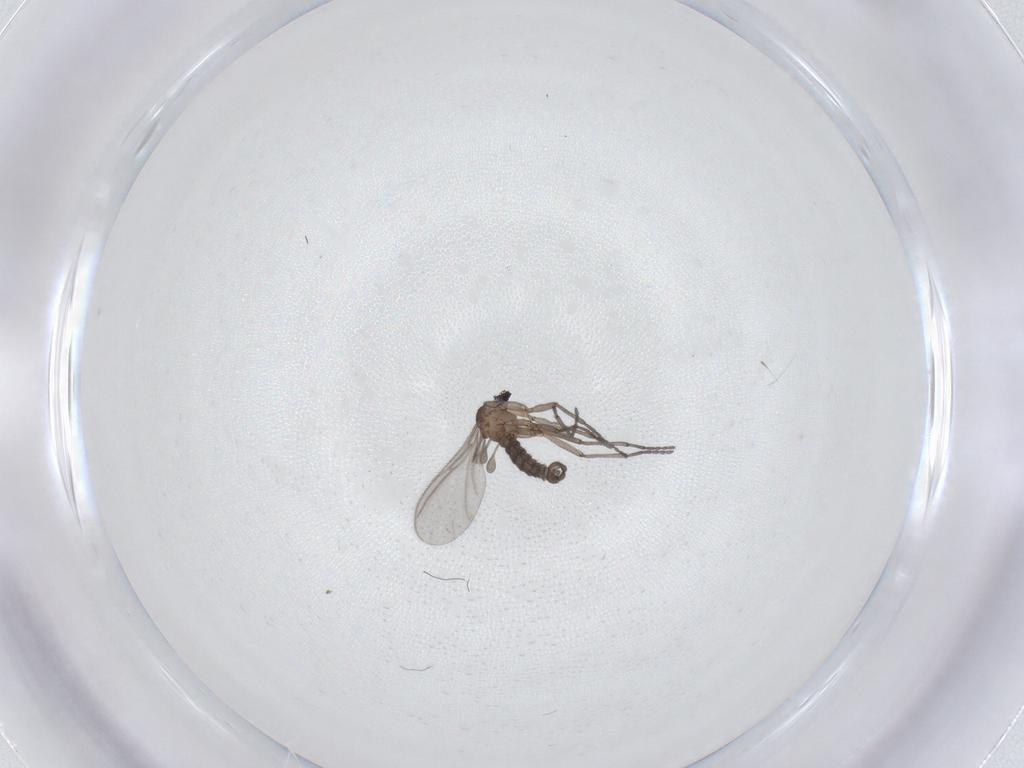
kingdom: Animalia
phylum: Arthropoda
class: Insecta
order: Diptera
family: Sciaridae
